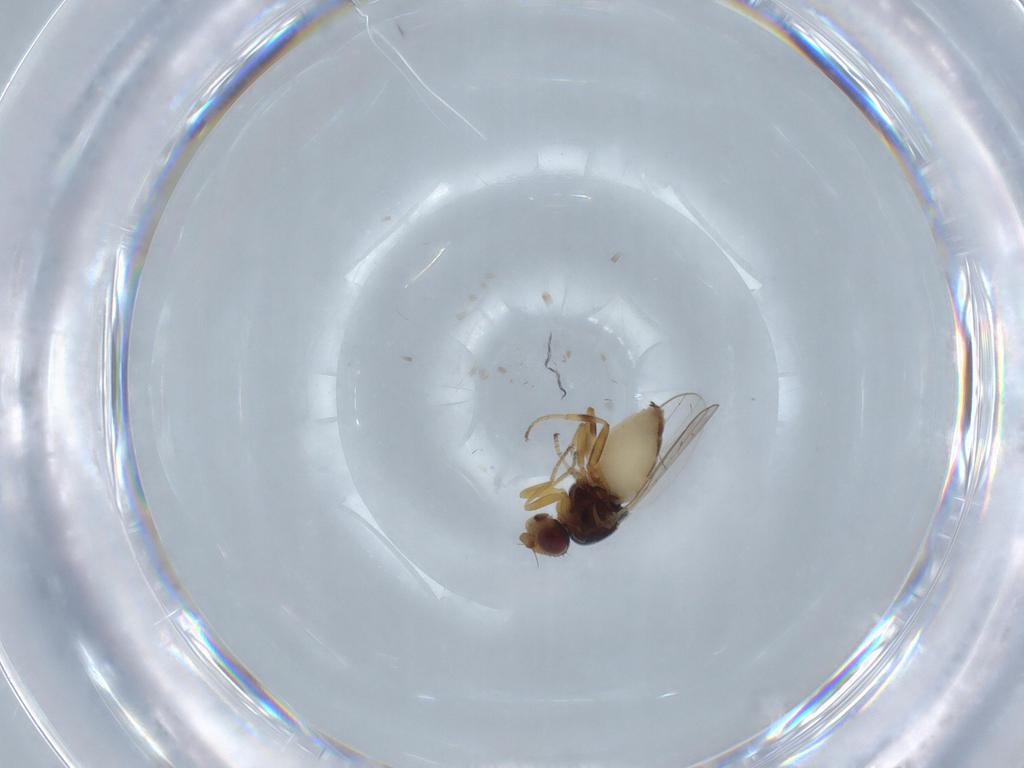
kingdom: Animalia
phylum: Arthropoda
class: Insecta
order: Diptera
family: Chloropidae
